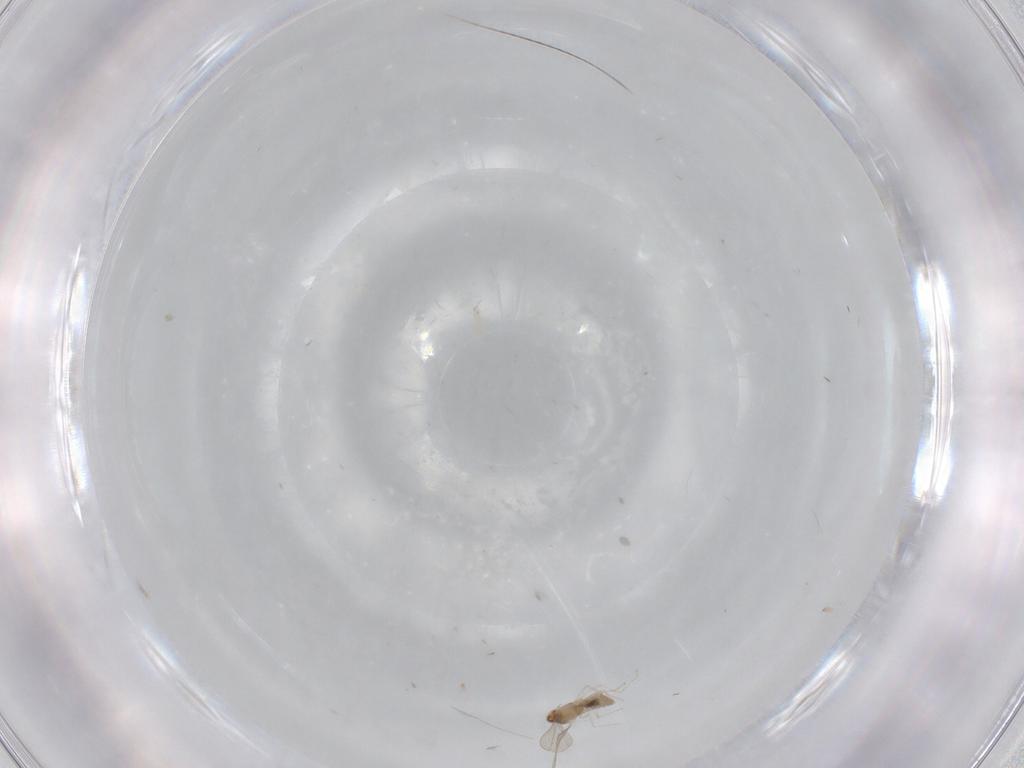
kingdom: Animalia
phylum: Arthropoda
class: Insecta
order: Diptera
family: Cecidomyiidae
